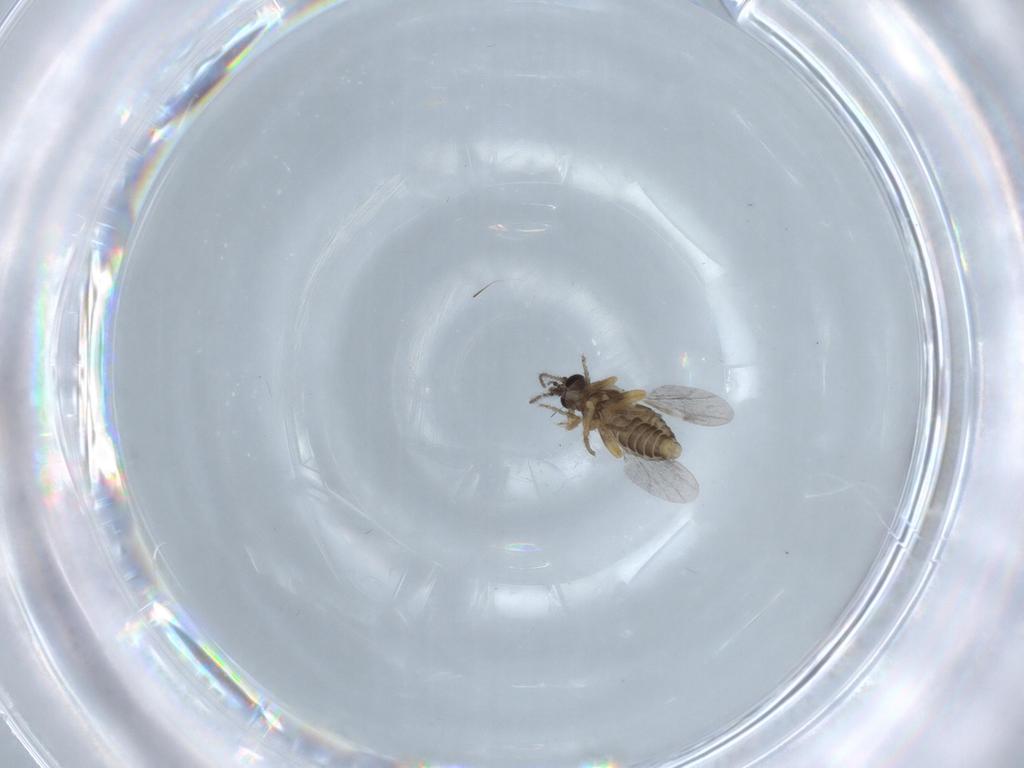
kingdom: Animalia
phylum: Arthropoda
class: Insecta
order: Diptera
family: Ceratopogonidae
